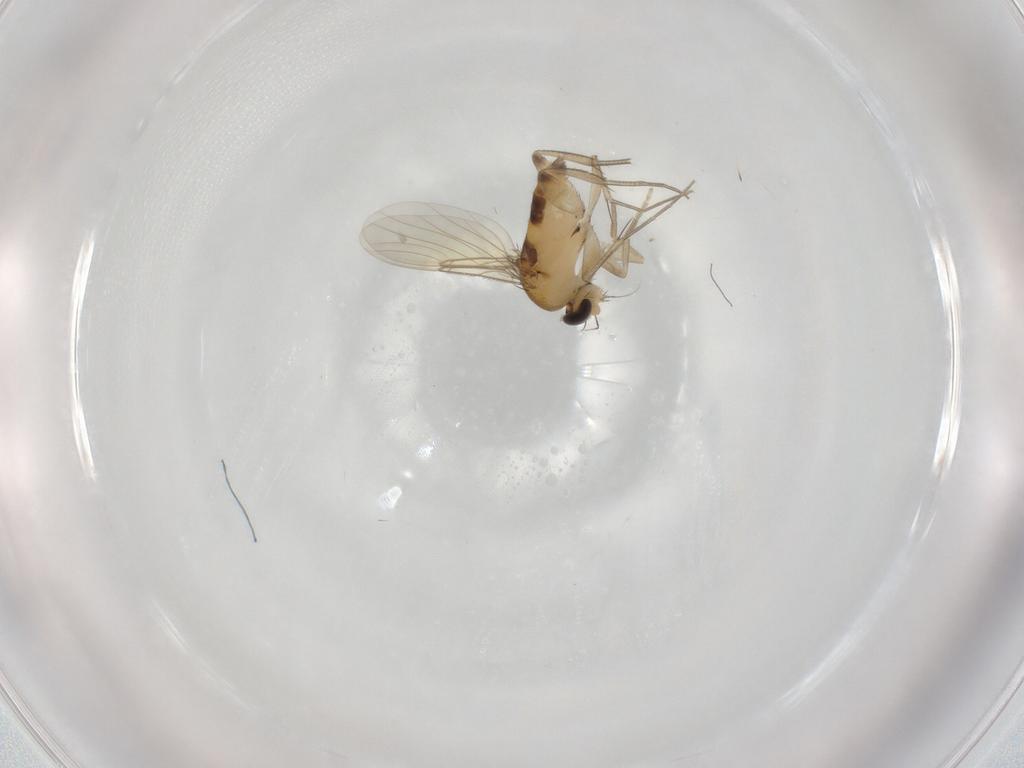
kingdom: Animalia
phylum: Arthropoda
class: Insecta
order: Diptera
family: Phoridae
